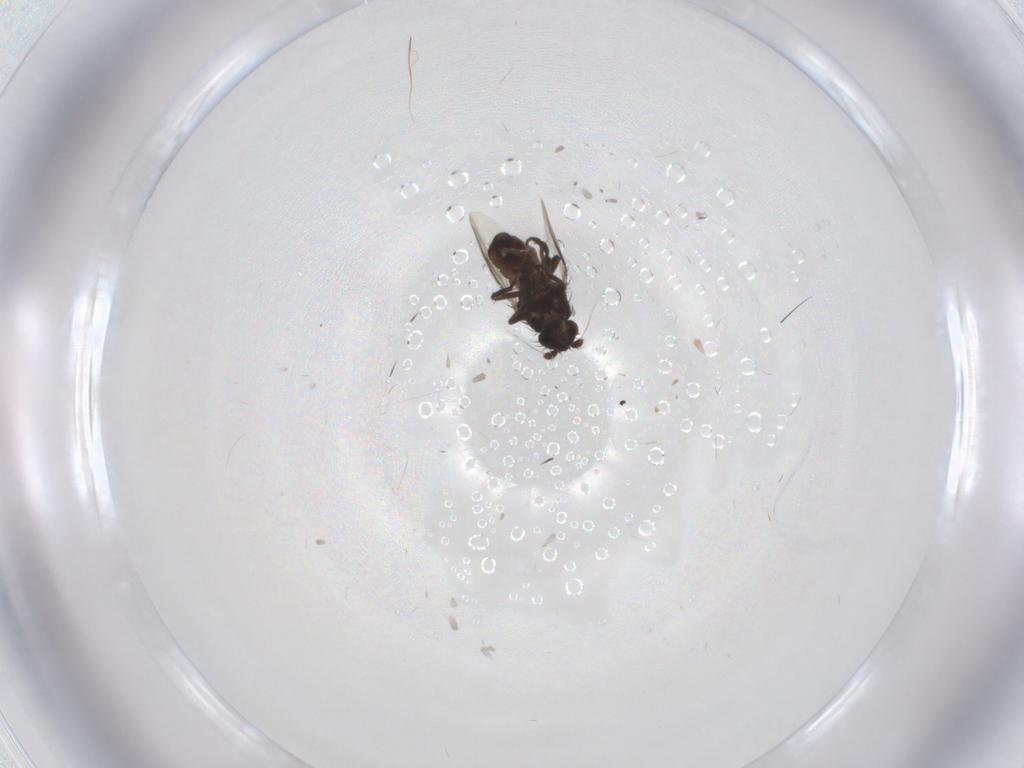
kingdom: Animalia
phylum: Arthropoda
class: Insecta
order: Diptera
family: Sphaeroceridae
